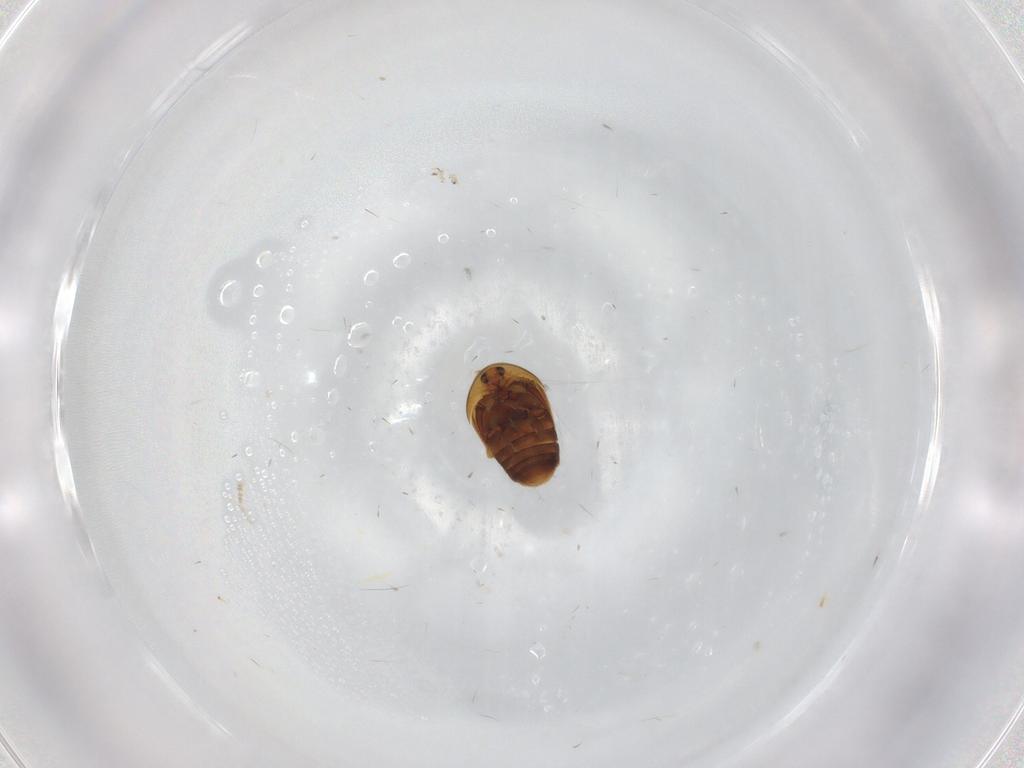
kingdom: Animalia
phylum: Arthropoda
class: Insecta
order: Coleoptera
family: Corylophidae
